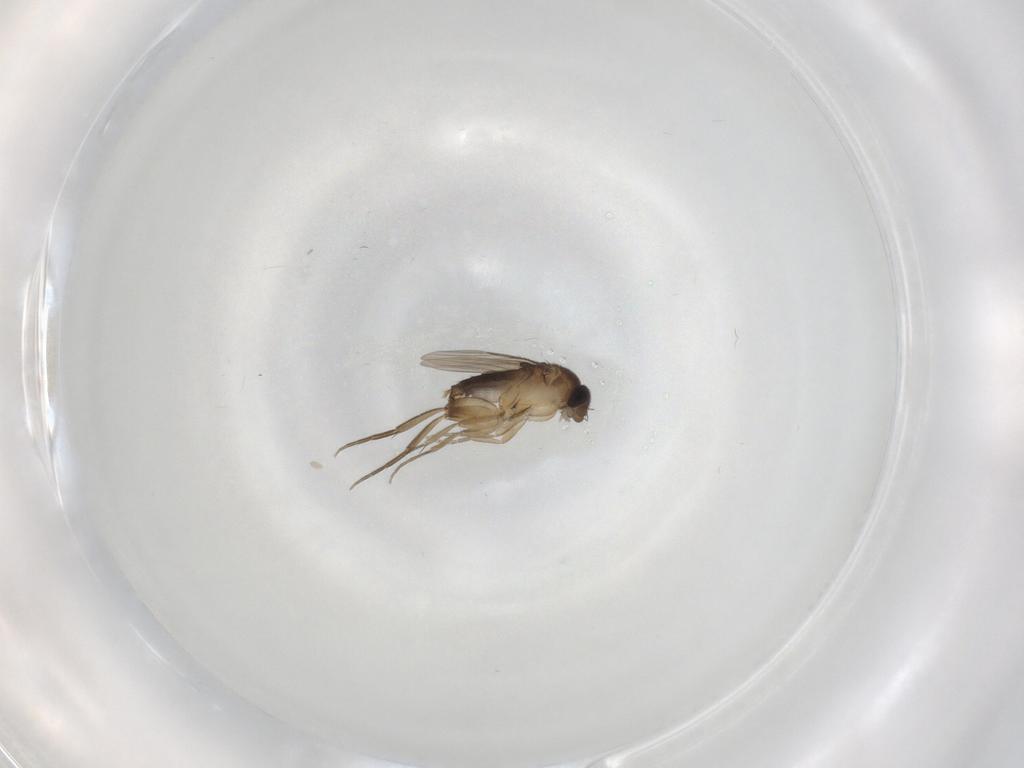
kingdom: Animalia
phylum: Arthropoda
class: Insecta
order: Diptera
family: Phoridae
